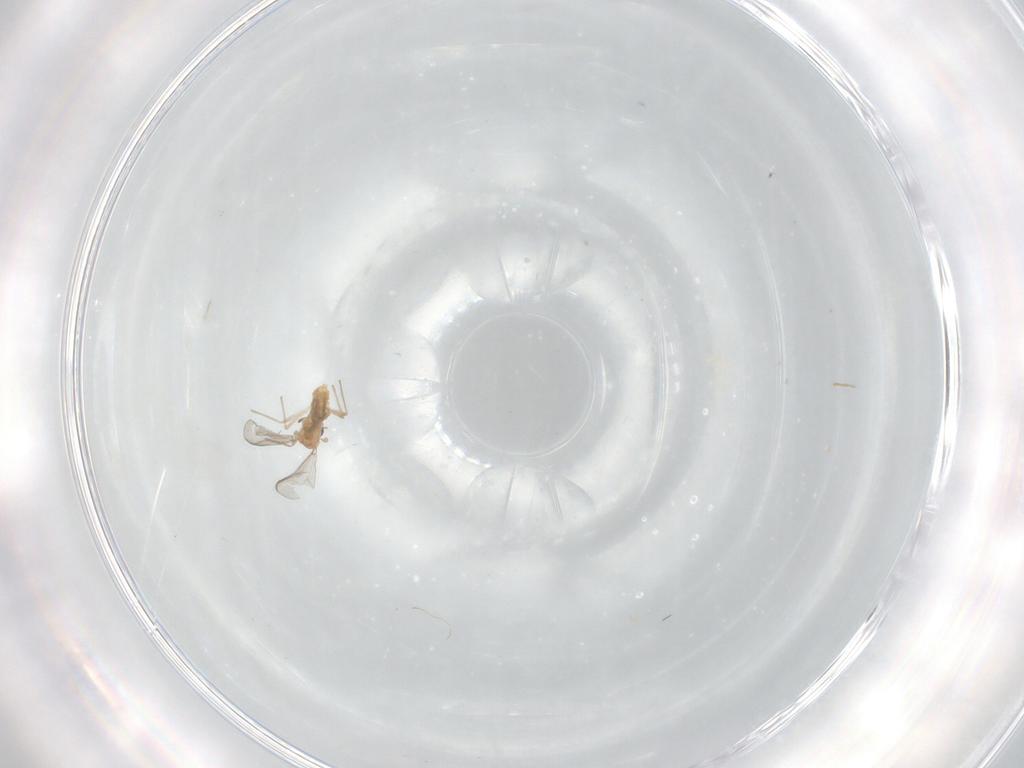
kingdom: Animalia
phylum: Arthropoda
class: Insecta
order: Diptera
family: Chironomidae
